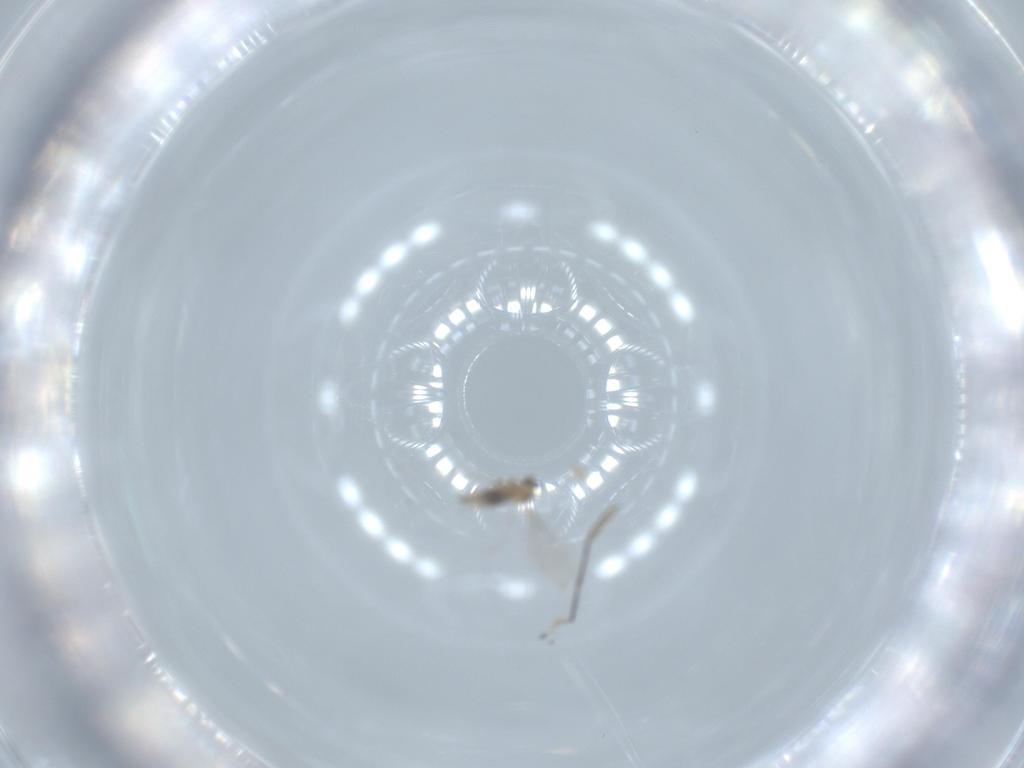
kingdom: Animalia
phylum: Arthropoda
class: Insecta
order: Diptera
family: Cecidomyiidae
